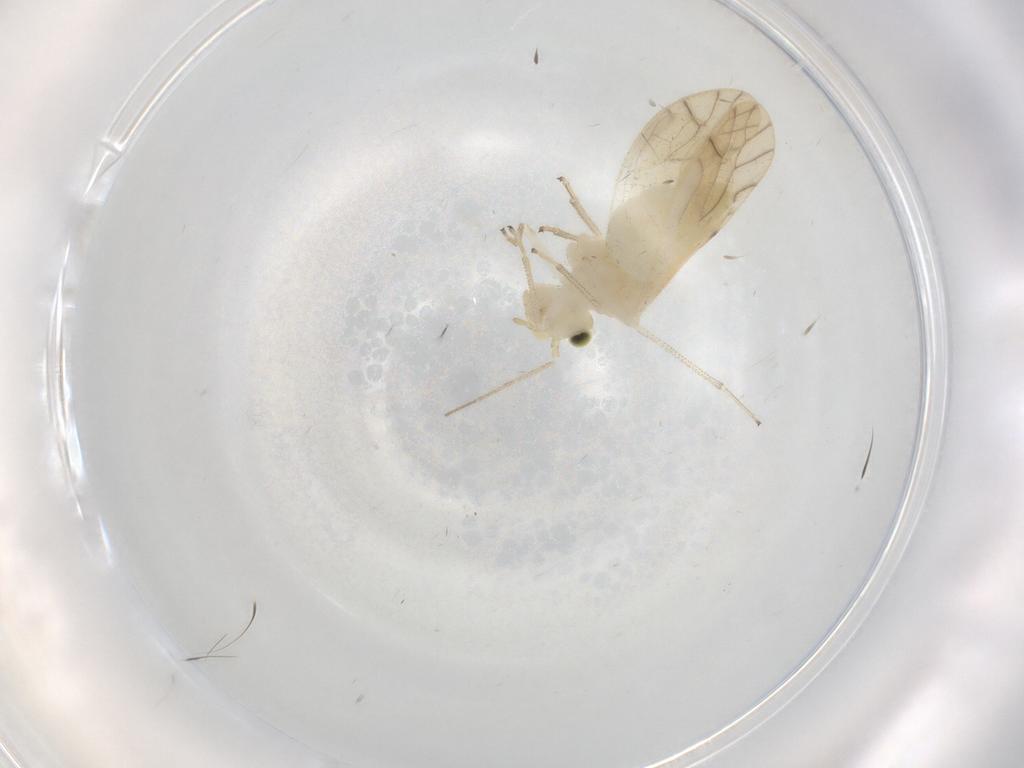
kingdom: Animalia
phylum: Arthropoda
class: Insecta
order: Psocodea
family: Caeciliusidae
